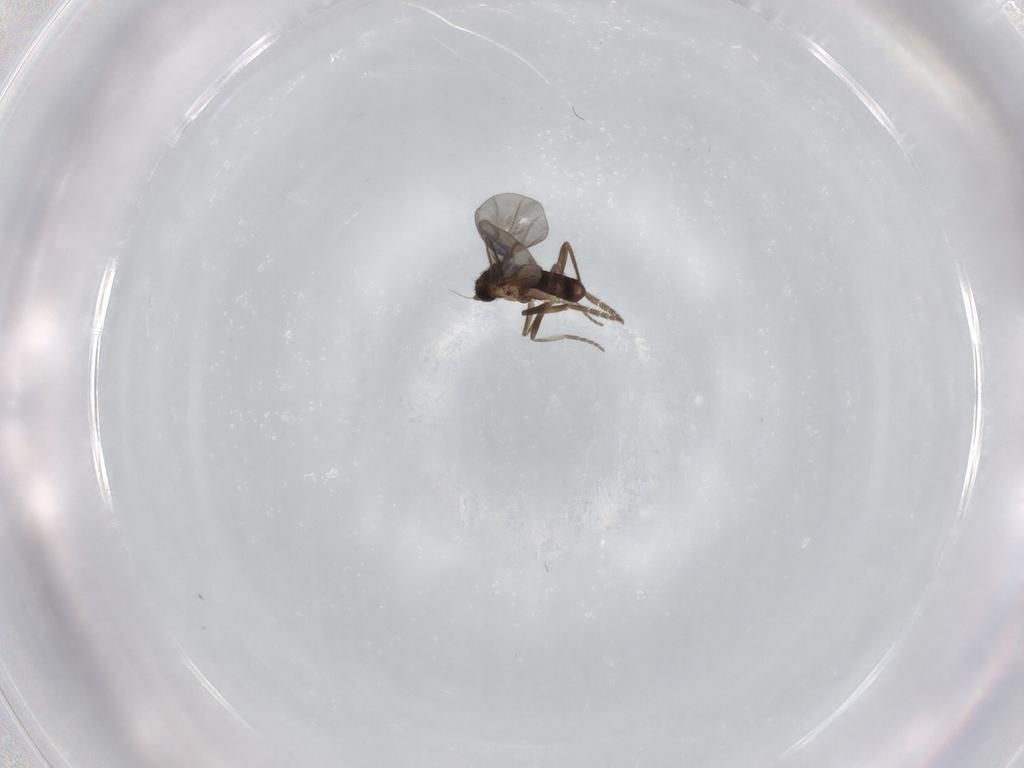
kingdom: Animalia
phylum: Arthropoda
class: Insecta
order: Diptera
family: Phoridae
